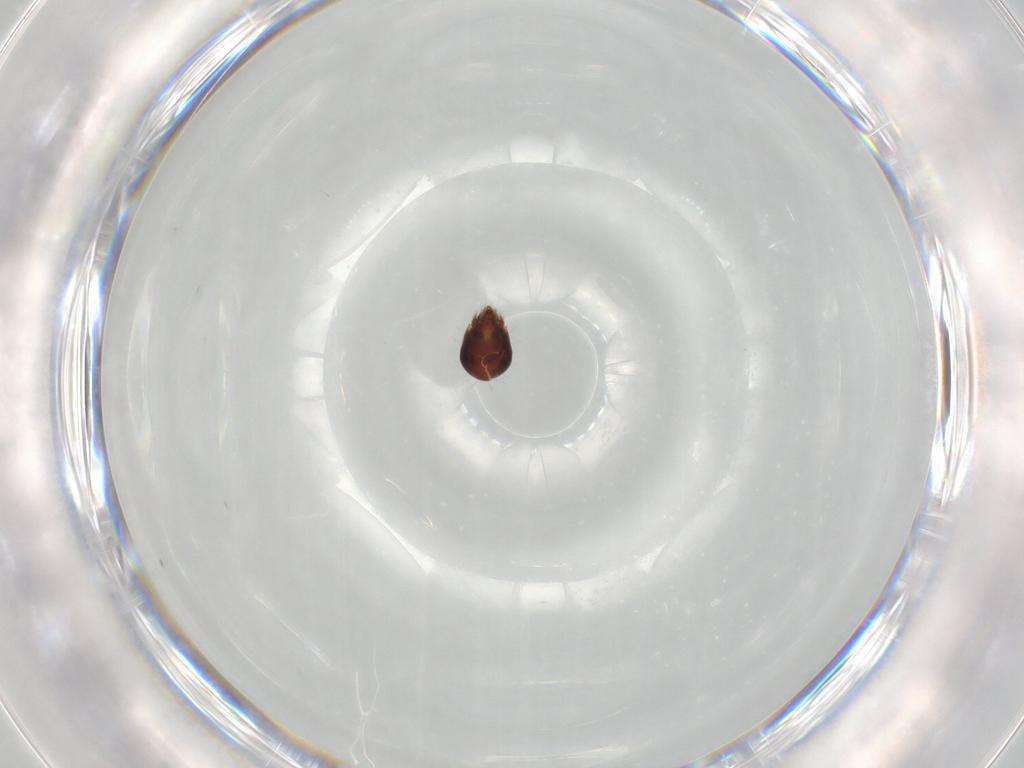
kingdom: Animalia
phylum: Arthropoda
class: Arachnida
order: Sarcoptiformes
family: Humerobatidae
